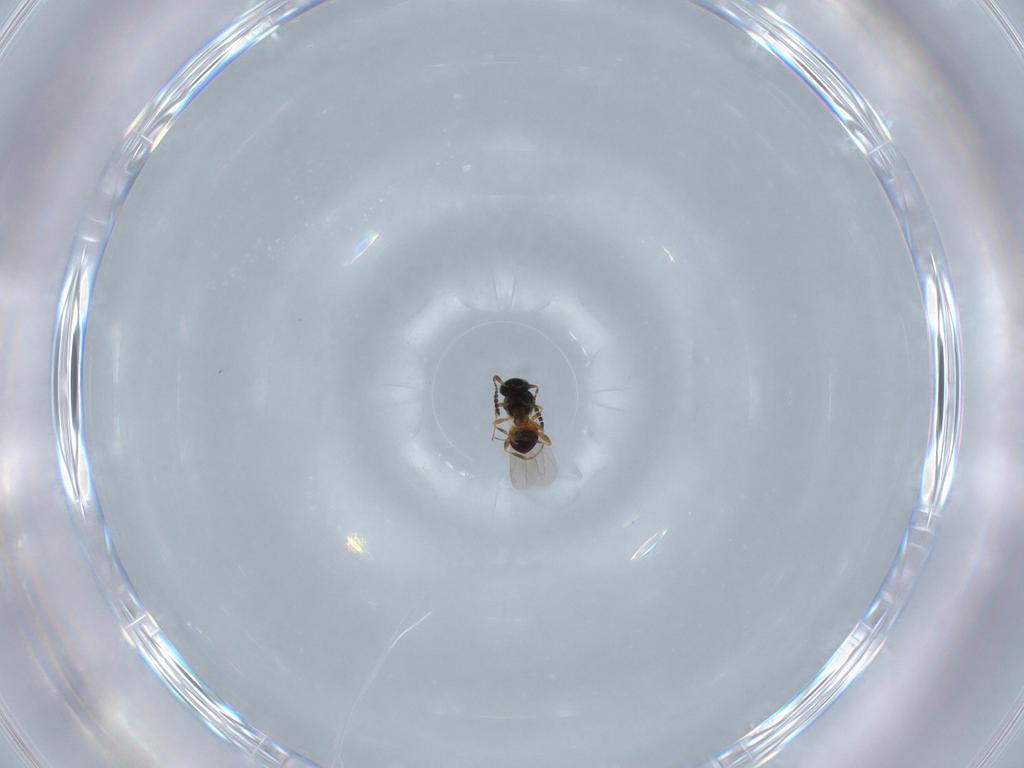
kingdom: Animalia
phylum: Arthropoda
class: Insecta
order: Hymenoptera
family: Platygastridae
